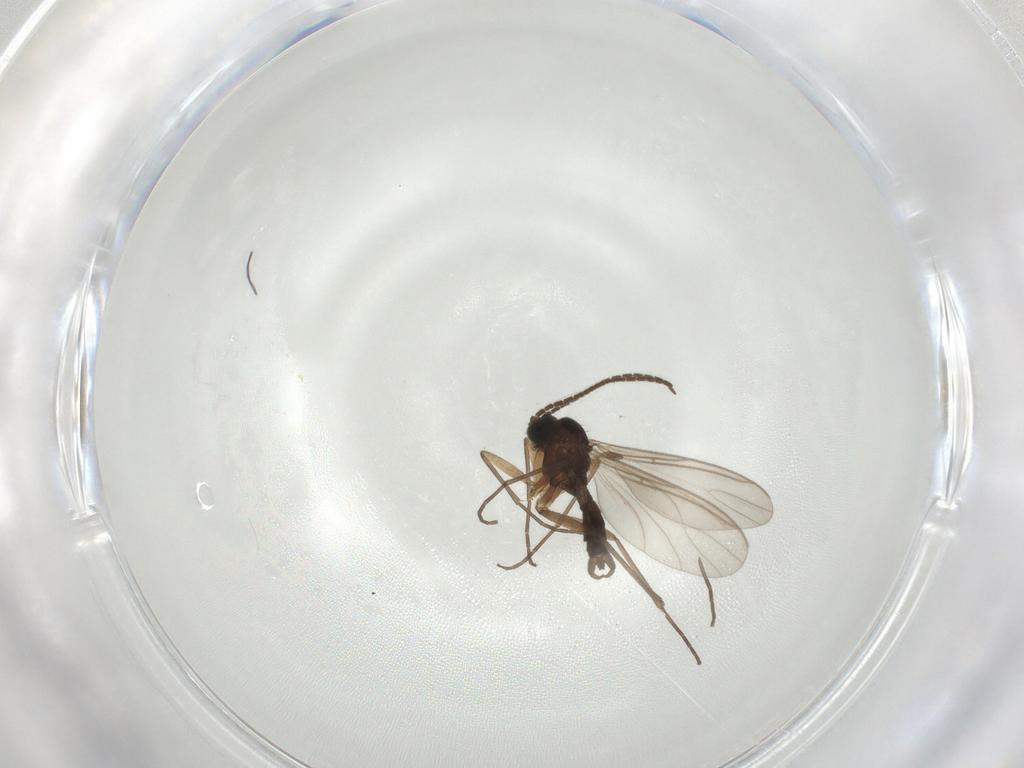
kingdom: Animalia
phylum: Arthropoda
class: Insecta
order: Diptera
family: Sciaridae
